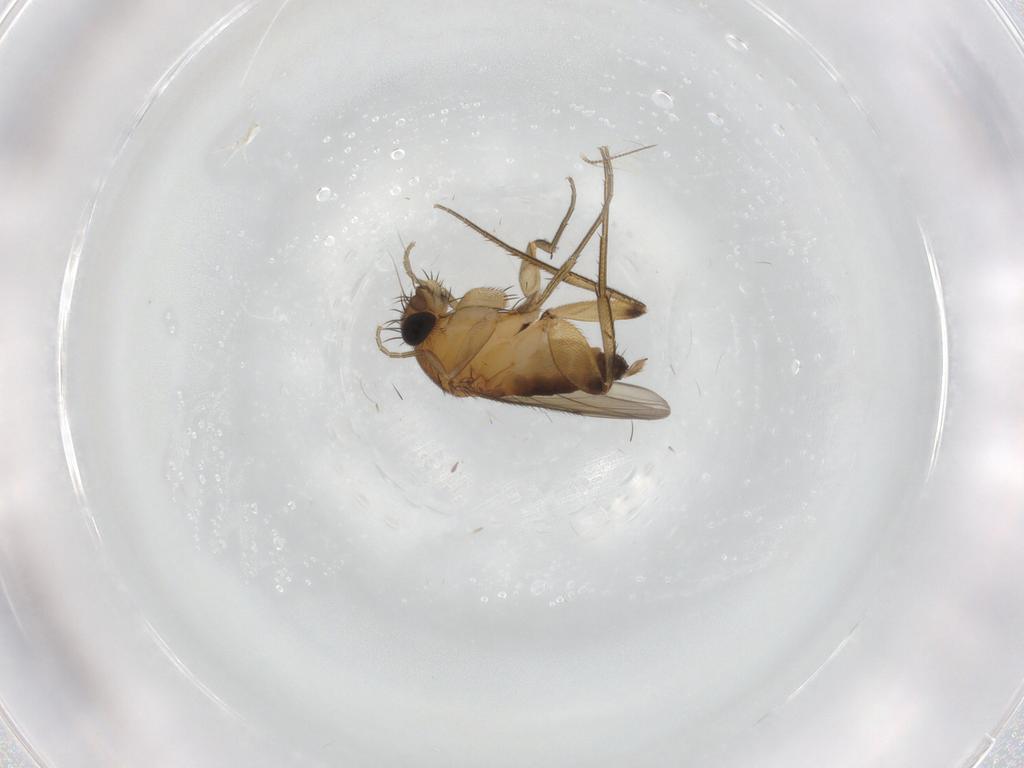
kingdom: Animalia
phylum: Arthropoda
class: Insecta
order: Diptera
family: Phoridae
